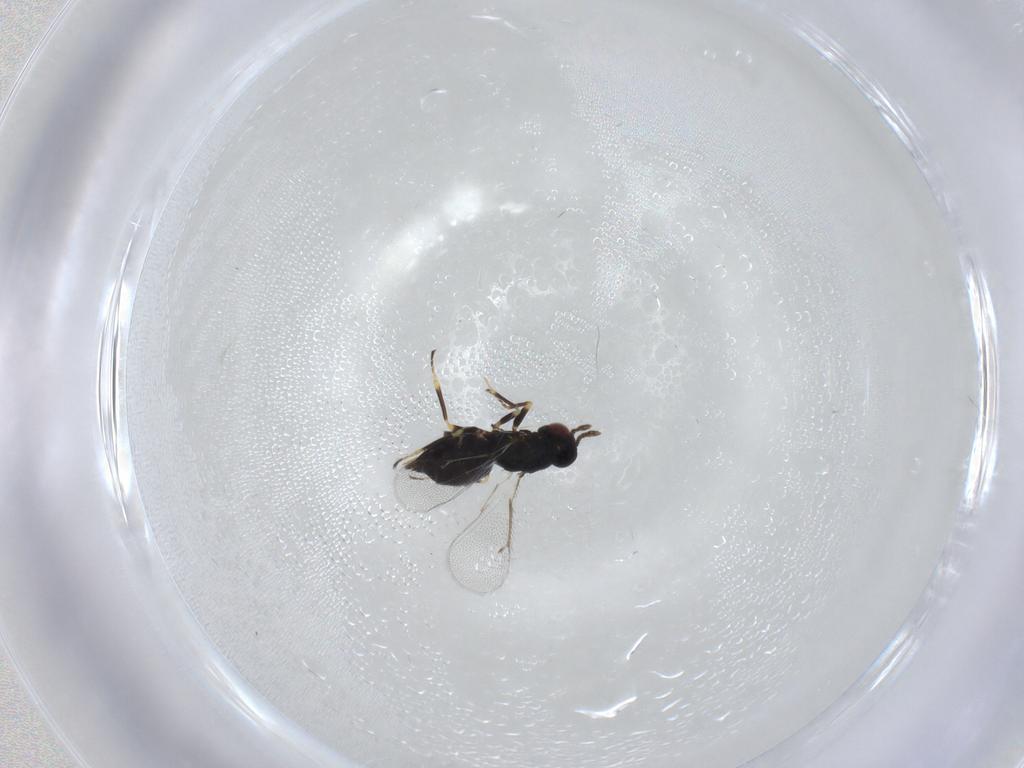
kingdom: Animalia
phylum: Arthropoda
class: Insecta
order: Hymenoptera
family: Eulophidae
